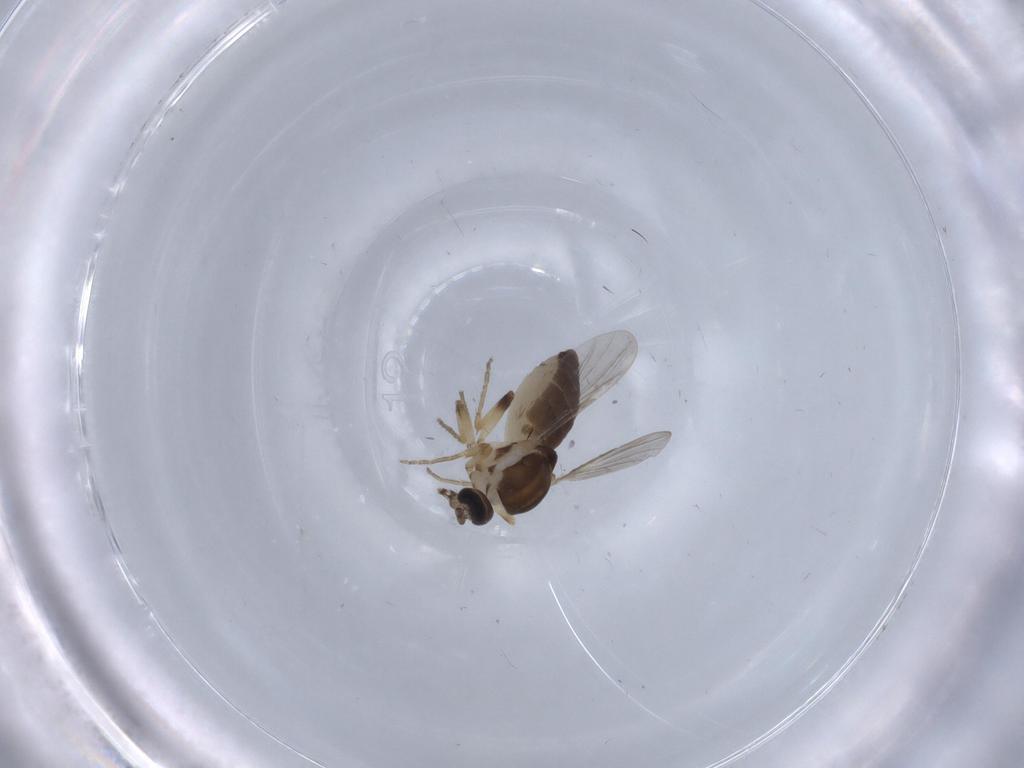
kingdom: Animalia
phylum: Arthropoda
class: Insecta
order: Diptera
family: Ceratopogonidae
